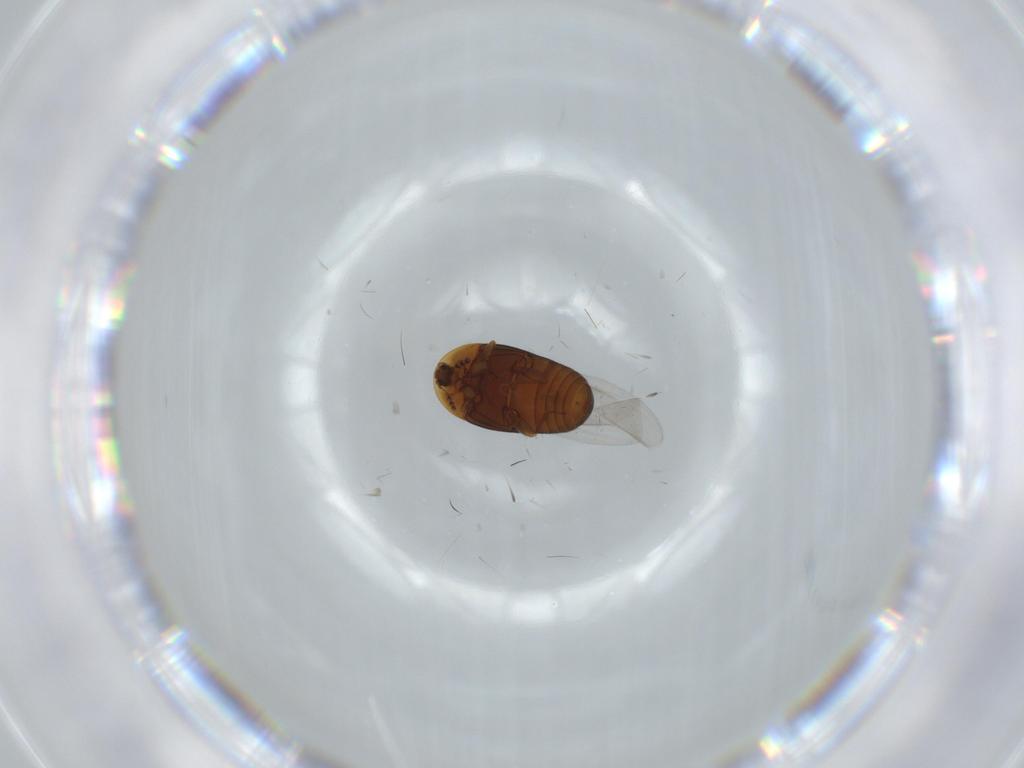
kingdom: Animalia
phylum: Arthropoda
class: Insecta
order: Coleoptera
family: Corylophidae
